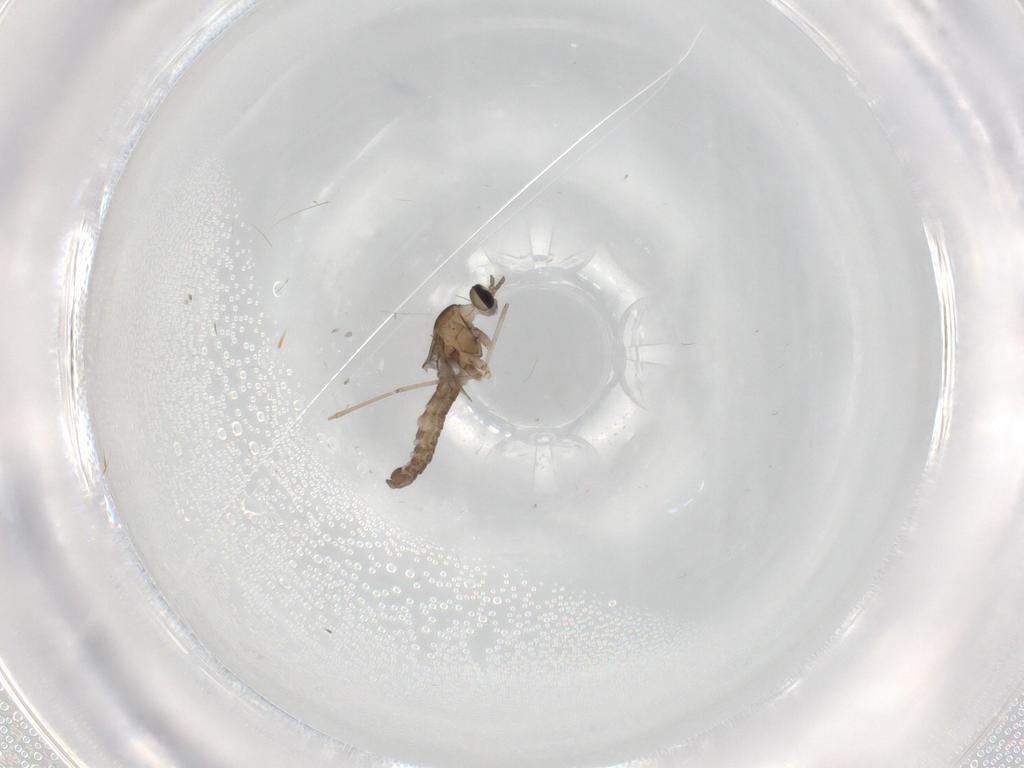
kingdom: Animalia
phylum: Arthropoda
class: Insecta
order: Diptera
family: Cecidomyiidae
